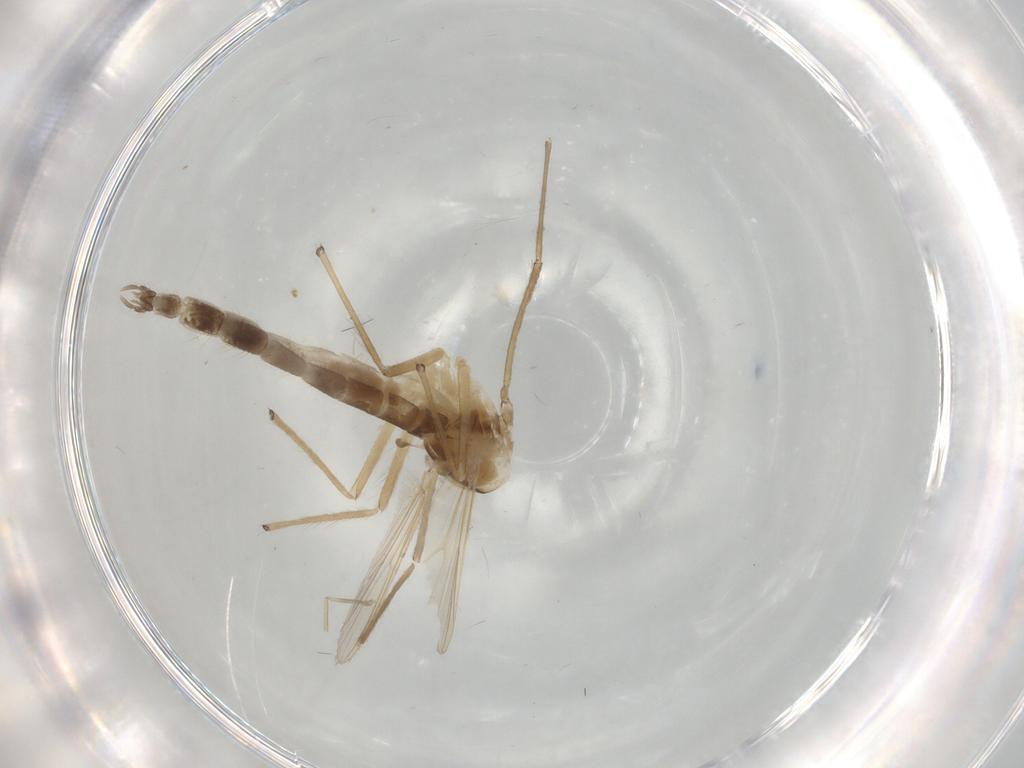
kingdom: Animalia
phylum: Arthropoda
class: Insecta
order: Diptera
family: Chironomidae
